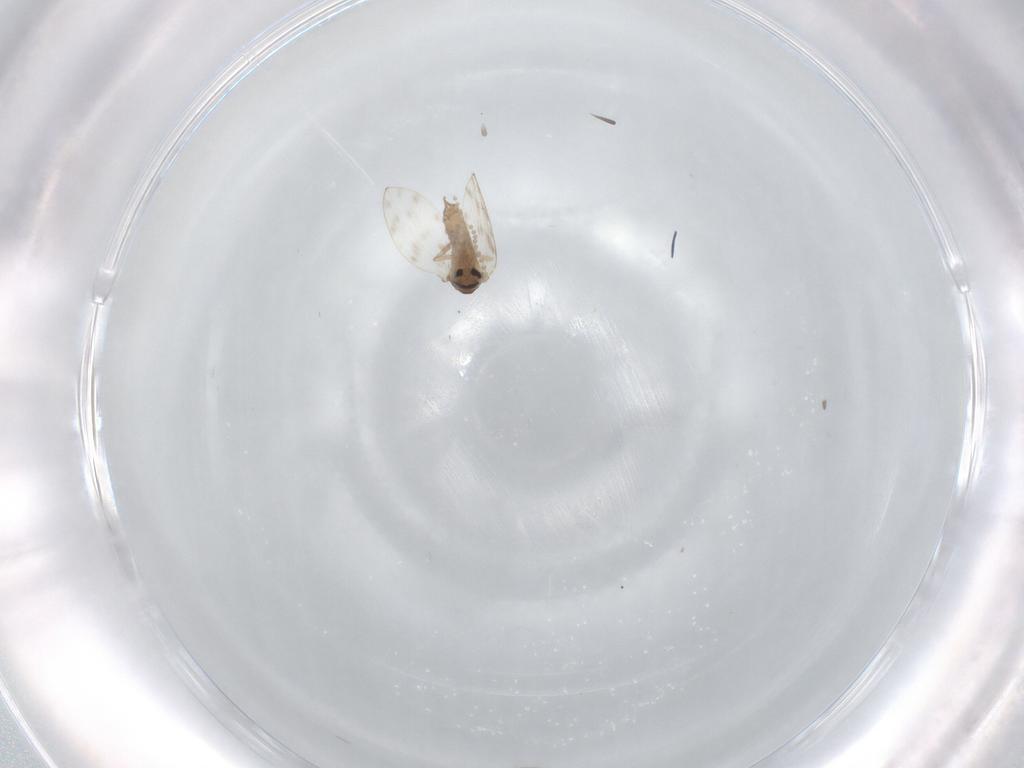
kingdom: Animalia
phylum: Arthropoda
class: Insecta
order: Diptera
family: Psychodidae
